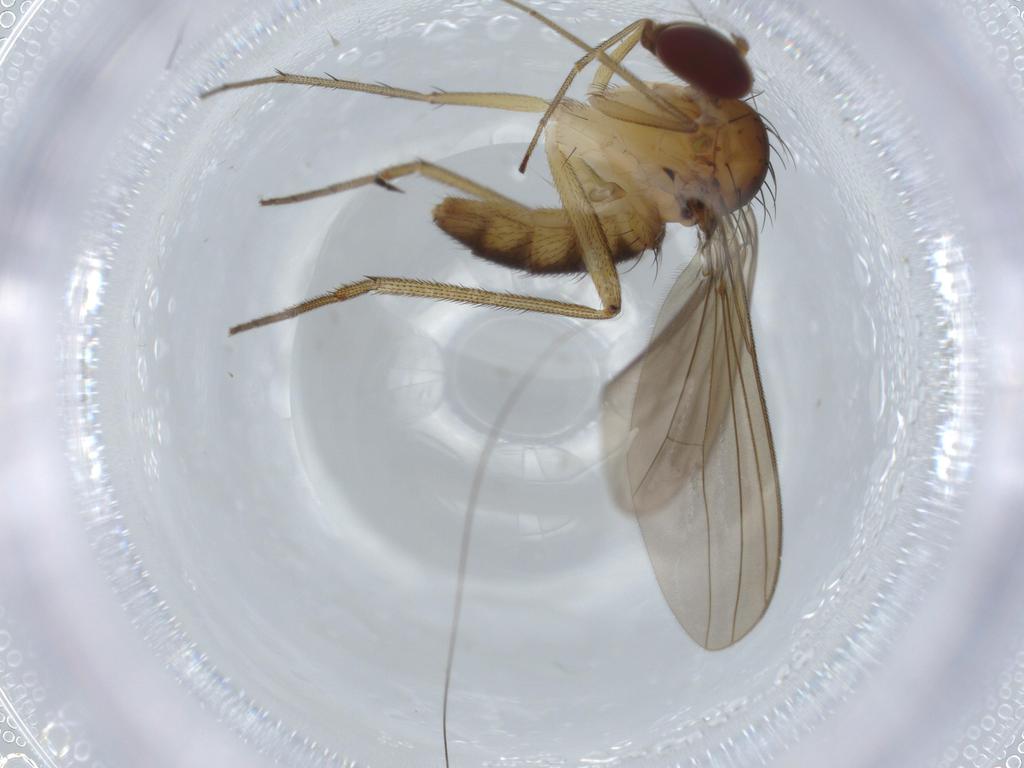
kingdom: Animalia
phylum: Arthropoda
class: Insecta
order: Diptera
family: Dolichopodidae
